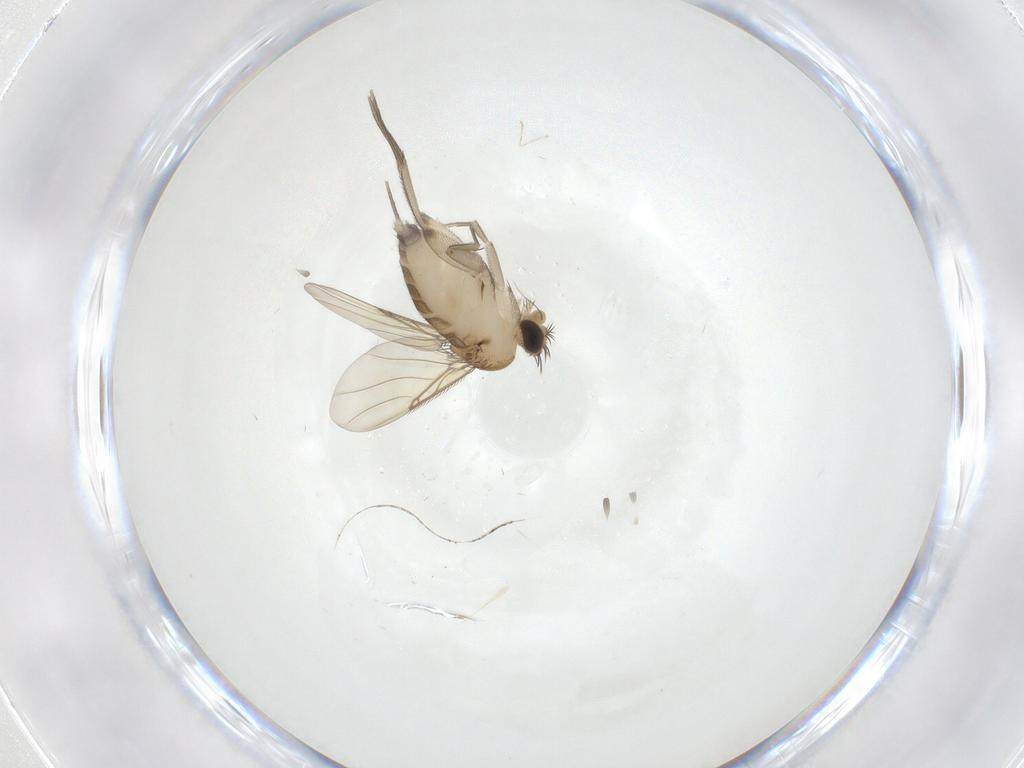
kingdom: Animalia
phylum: Arthropoda
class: Insecta
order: Diptera
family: Phoridae
